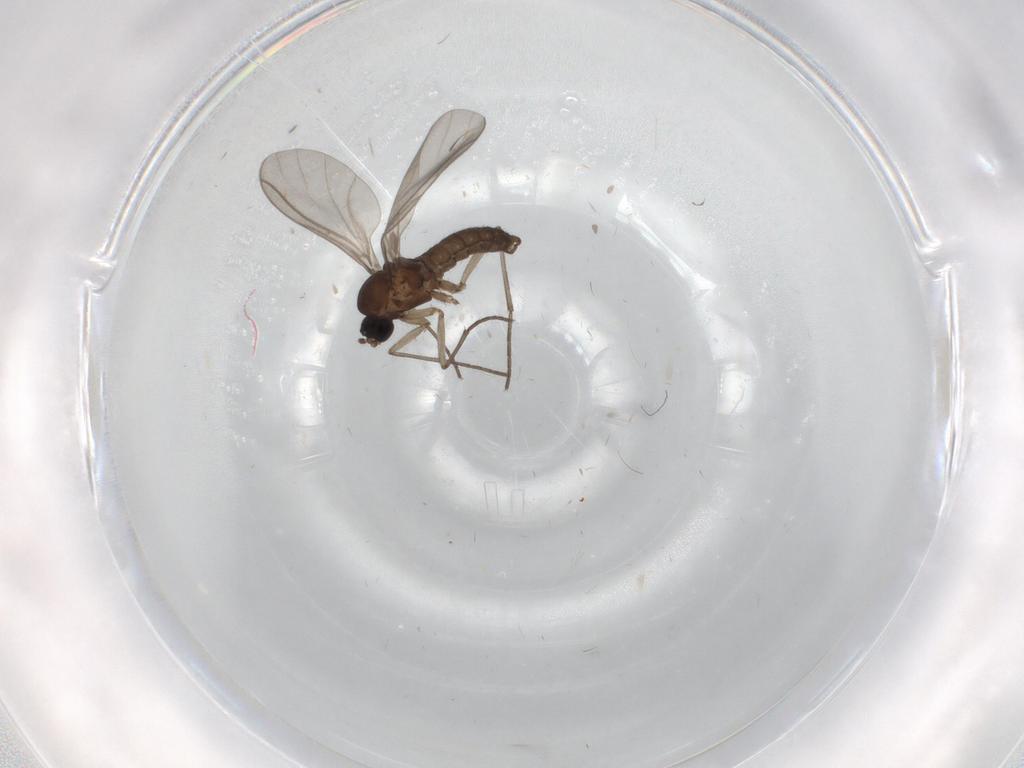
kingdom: Animalia
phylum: Arthropoda
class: Insecta
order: Diptera
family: Chironomidae
